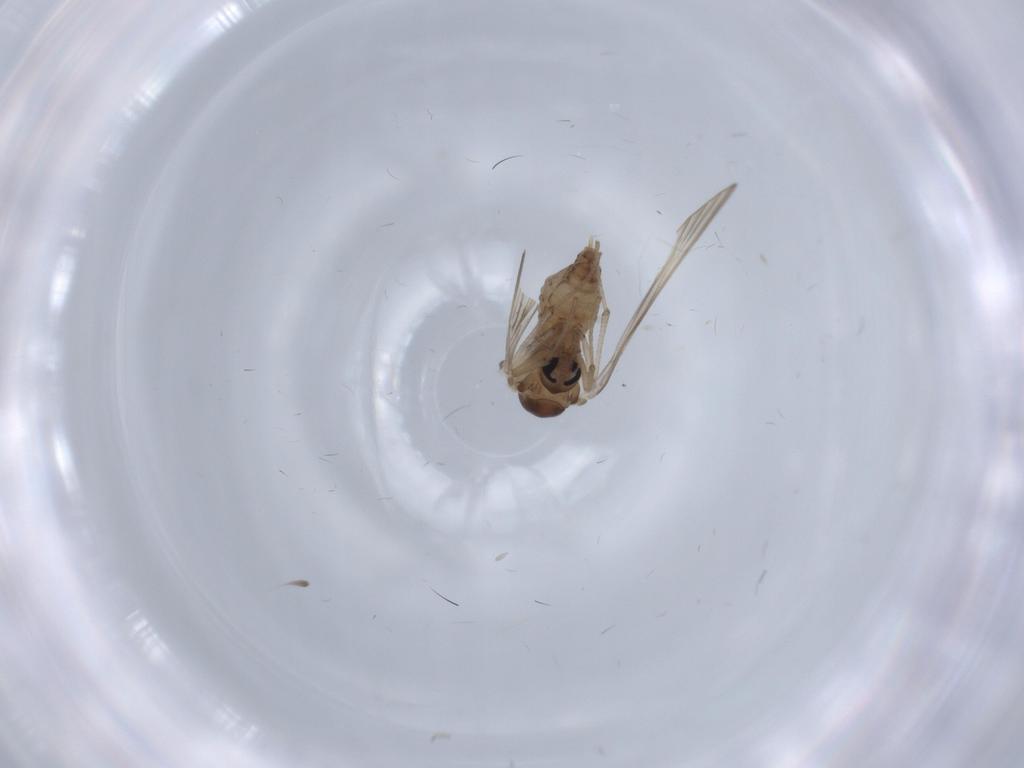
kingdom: Animalia
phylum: Arthropoda
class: Insecta
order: Diptera
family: Psychodidae
